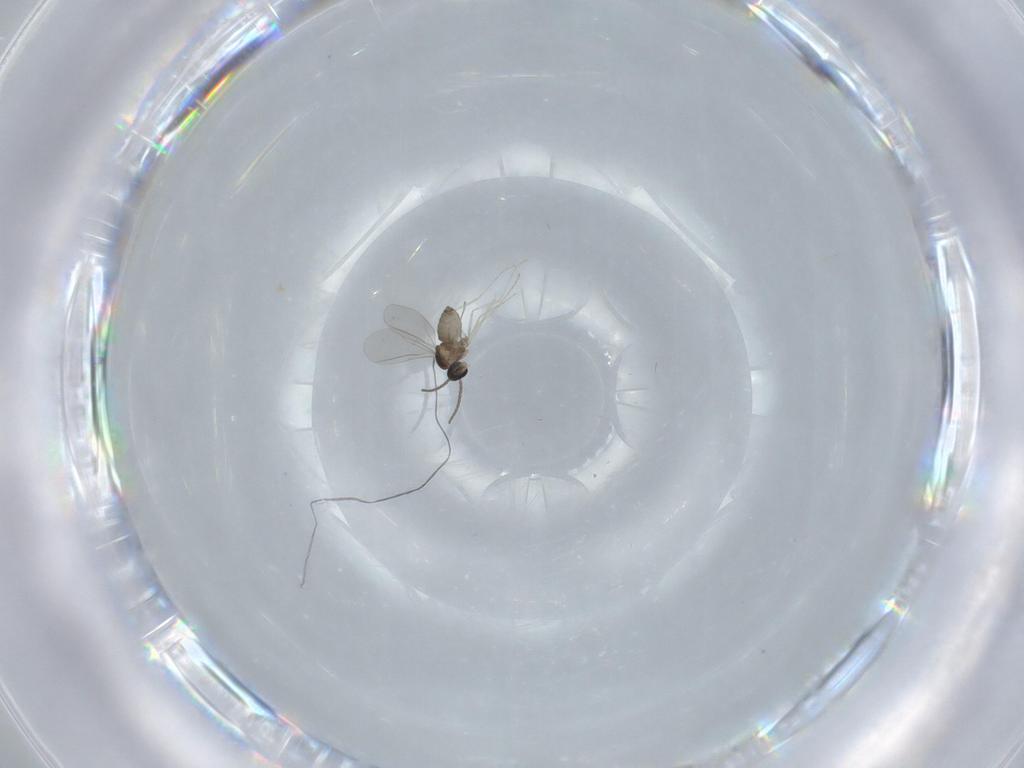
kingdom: Animalia
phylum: Arthropoda
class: Insecta
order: Diptera
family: Cecidomyiidae
